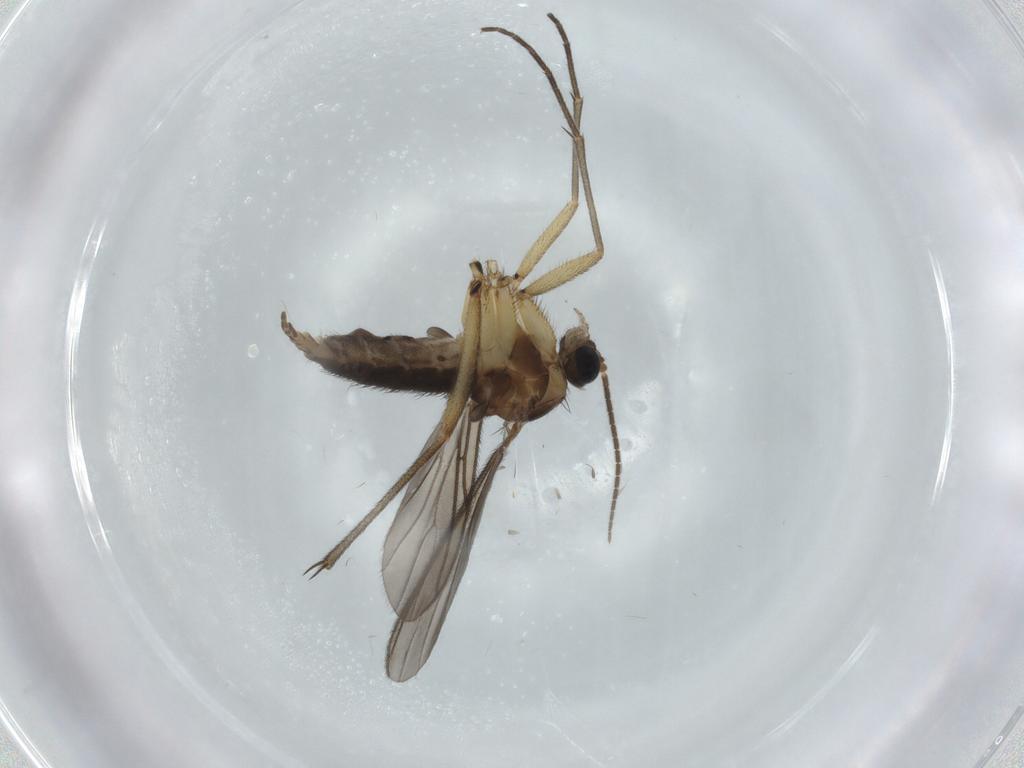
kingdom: Animalia
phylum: Arthropoda
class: Insecta
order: Diptera
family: Sciaridae
